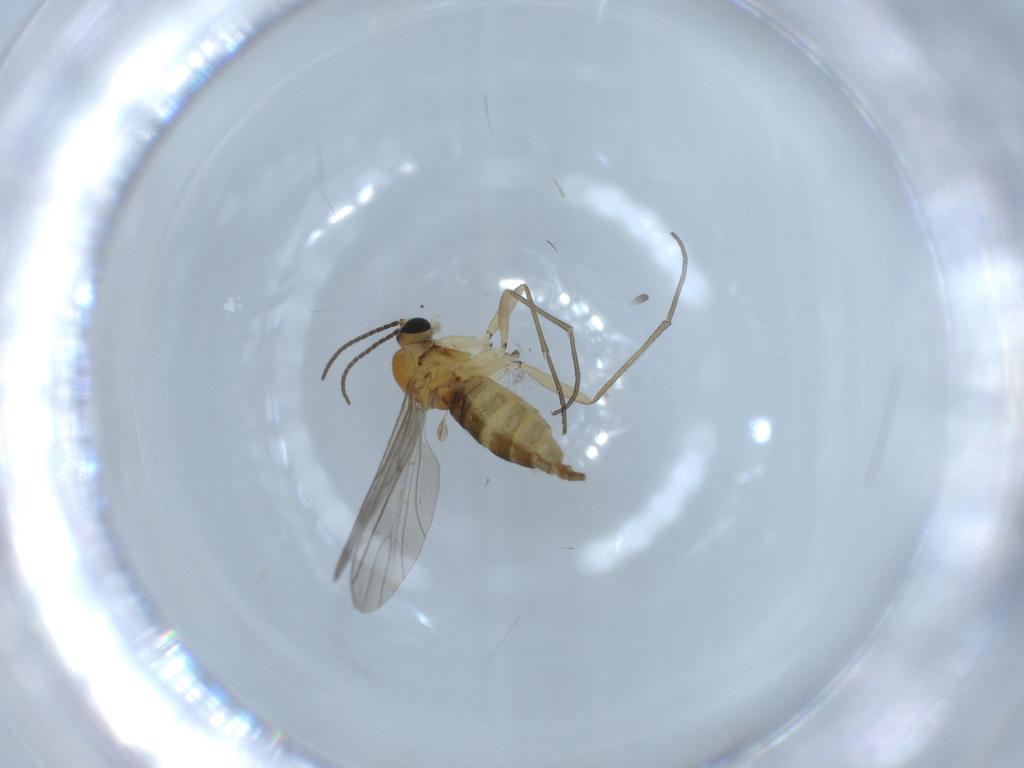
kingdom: Animalia
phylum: Arthropoda
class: Insecta
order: Diptera
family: Sciaridae
